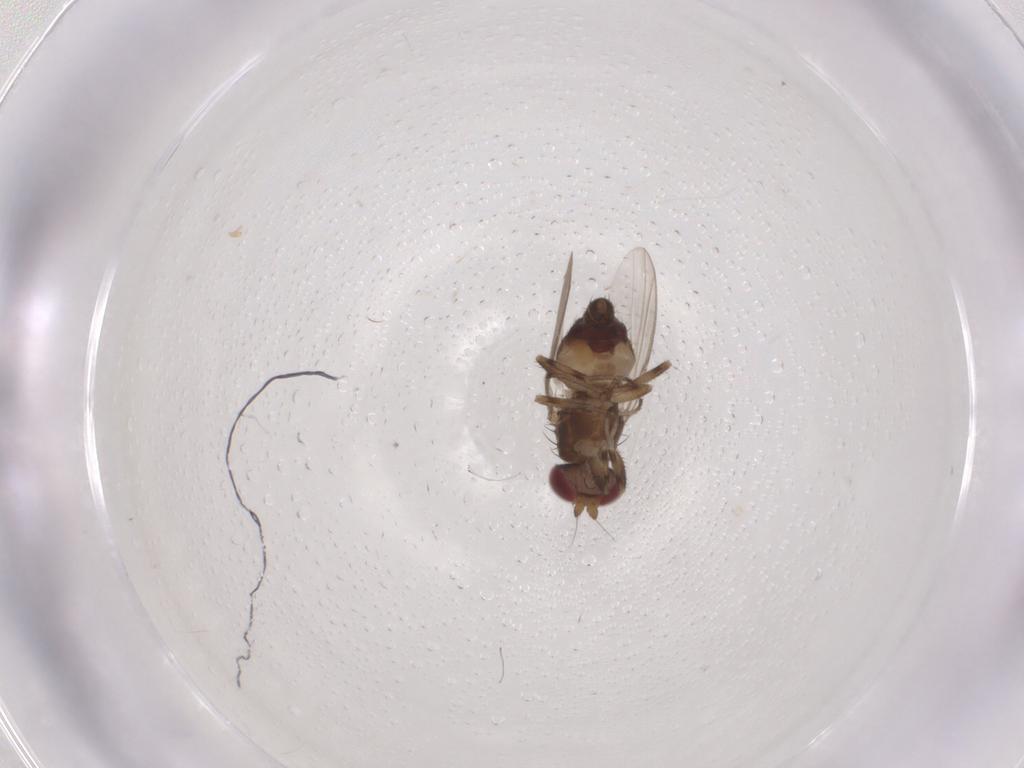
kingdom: Animalia
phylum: Arthropoda
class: Insecta
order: Diptera
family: Heleomyzidae
